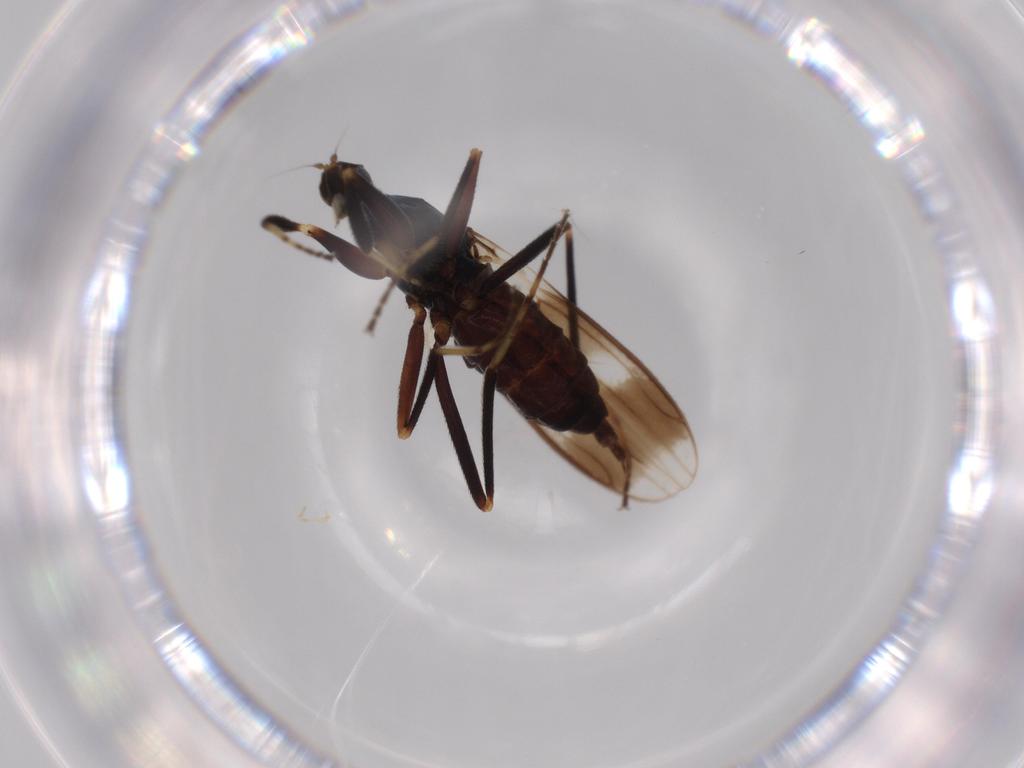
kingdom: Animalia
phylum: Arthropoda
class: Insecta
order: Diptera
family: Hybotidae
